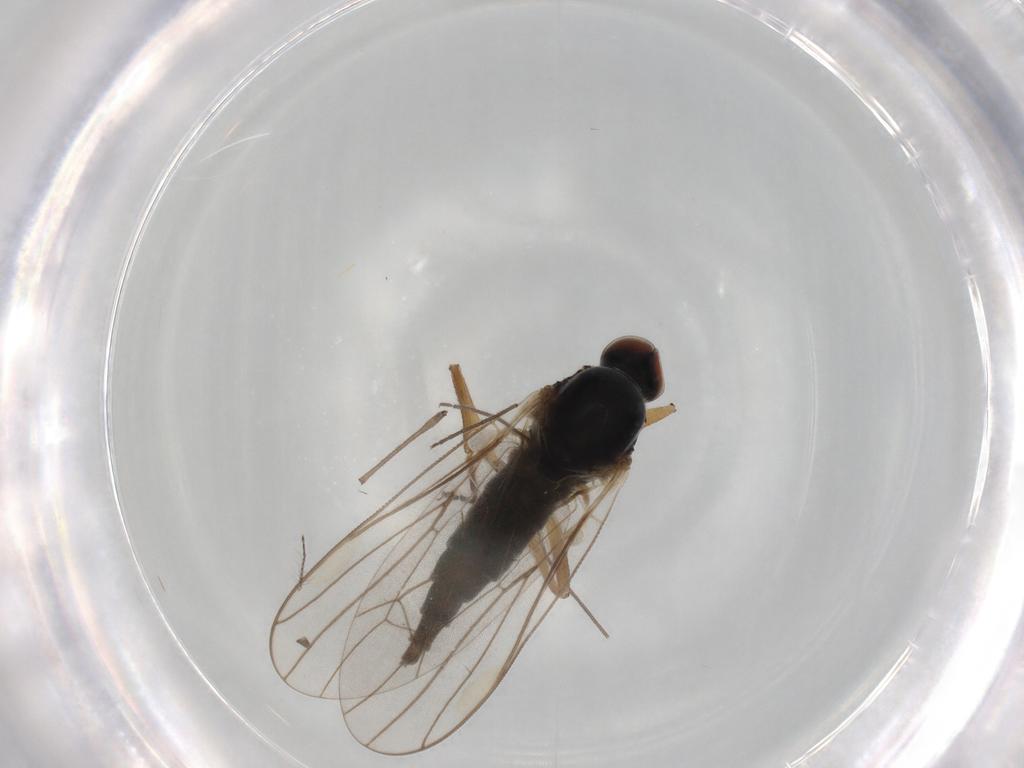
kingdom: Animalia
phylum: Arthropoda
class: Insecta
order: Diptera
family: Hybotidae
